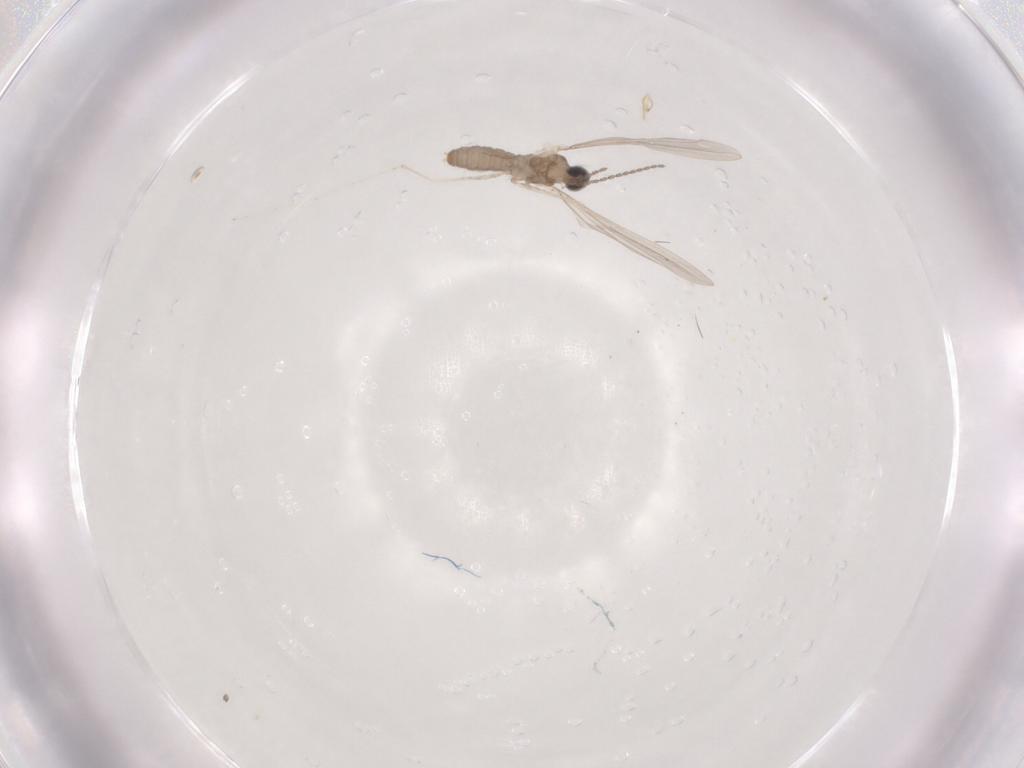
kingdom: Animalia
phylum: Arthropoda
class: Insecta
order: Diptera
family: Cecidomyiidae
